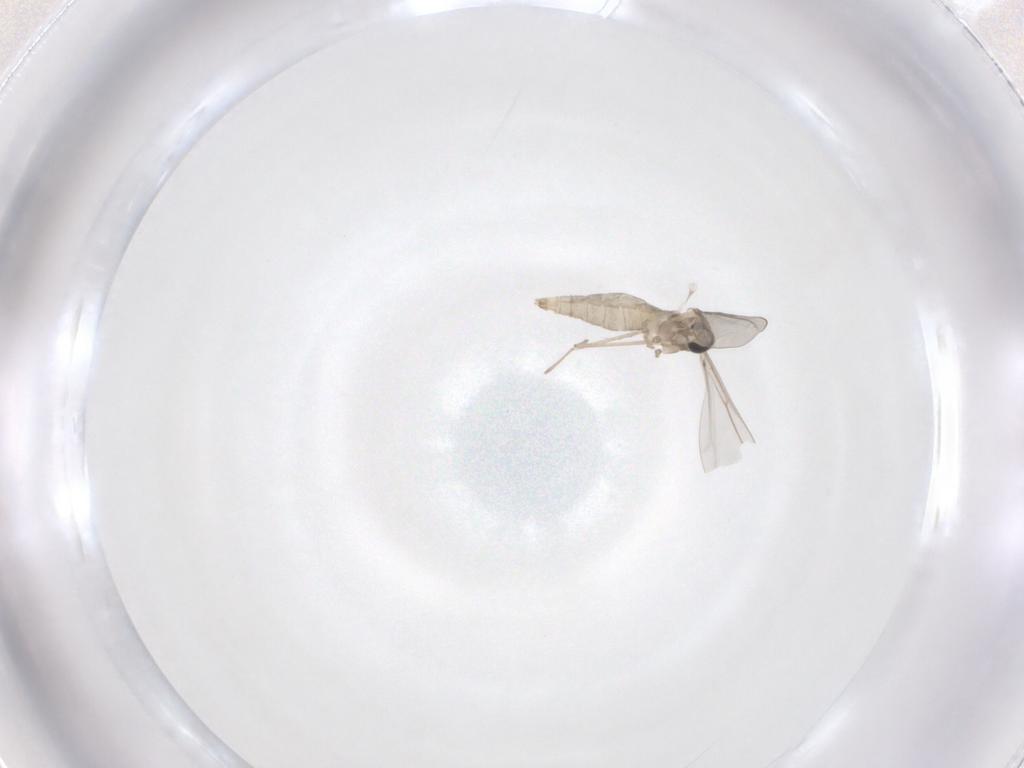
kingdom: Animalia
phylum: Arthropoda
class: Insecta
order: Diptera
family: Cecidomyiidae
